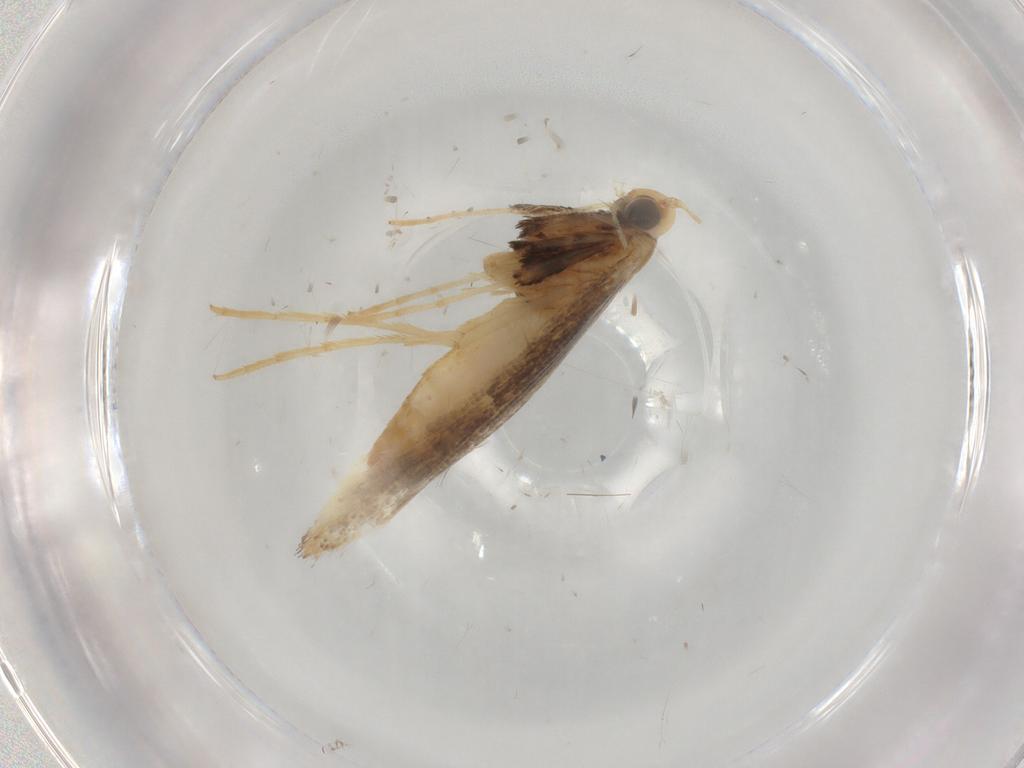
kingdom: Animalia
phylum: Arthropoda
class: Insecta
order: Lepidoptera
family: Gracillariidae
